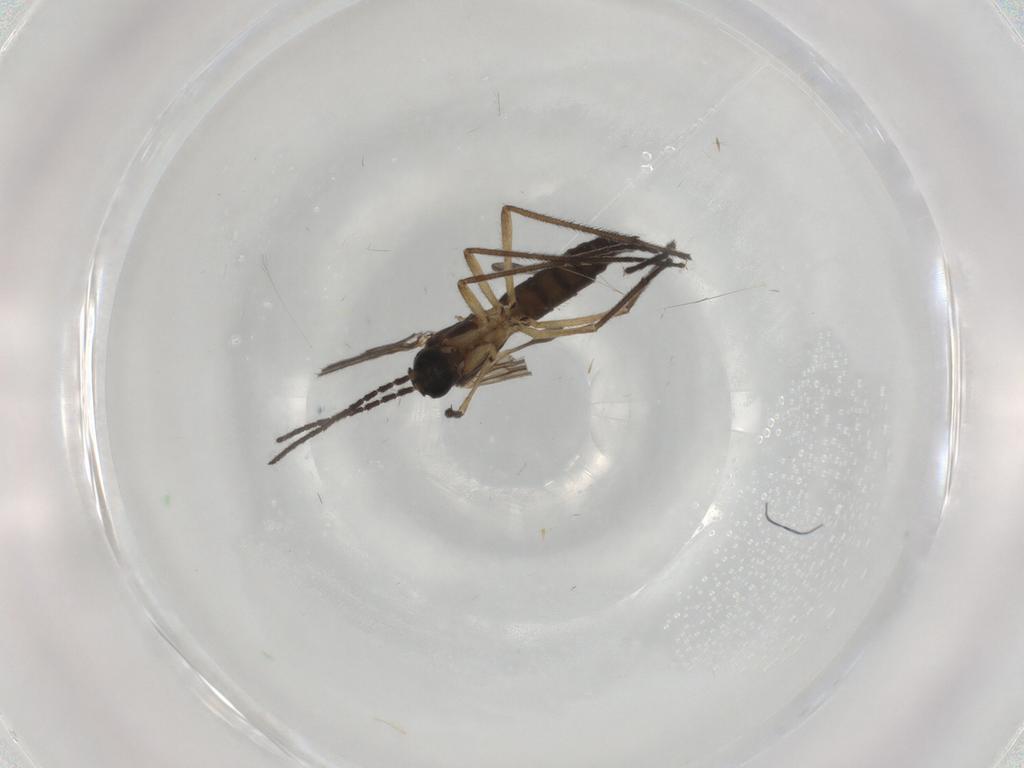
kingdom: Animalia
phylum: Arthropoda
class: Insecta
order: Diptera
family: Sciaridae
